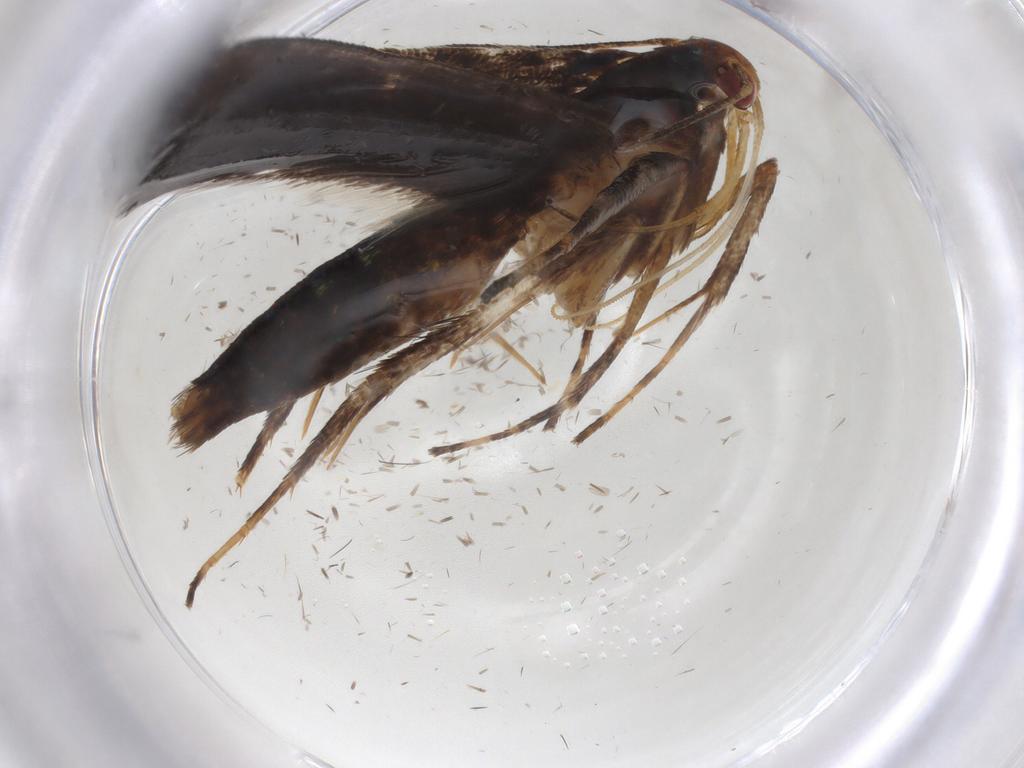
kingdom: Animalia
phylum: Arthropoda
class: Insecta
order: Lepidoptera
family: Gelechiidae
